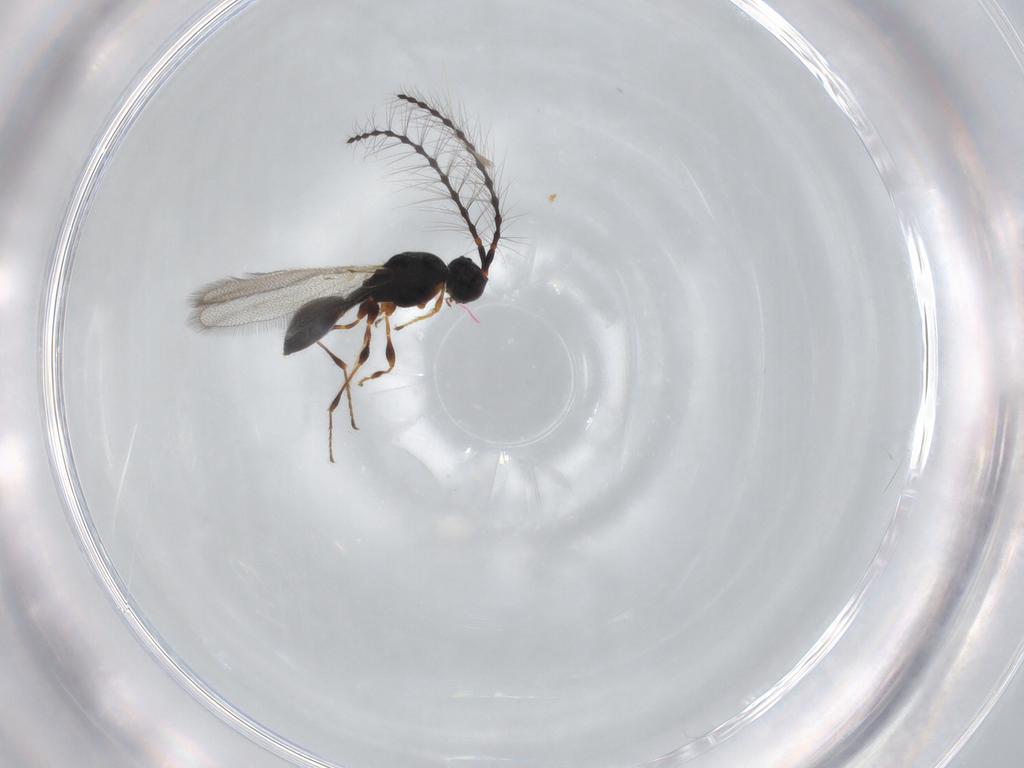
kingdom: Animalia
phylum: Arthropoda
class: Insecta
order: Hymenoptera
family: Diapriidae
